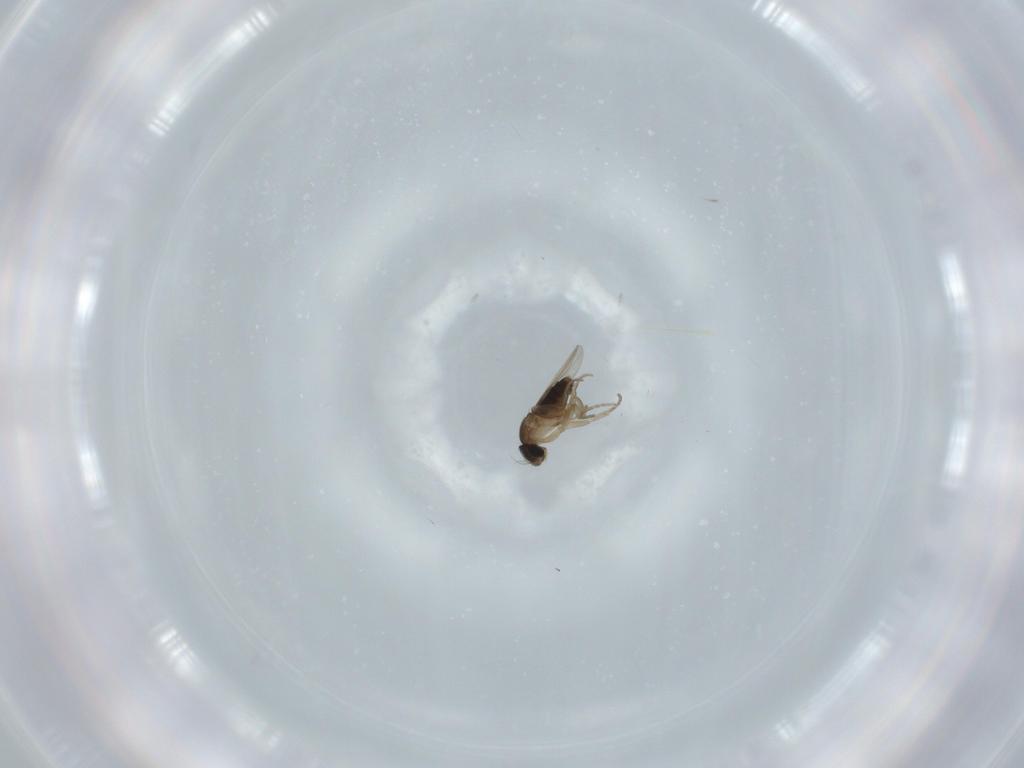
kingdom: Animalia
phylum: Arthropoda
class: Insecta
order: Diptera
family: Phoridae
